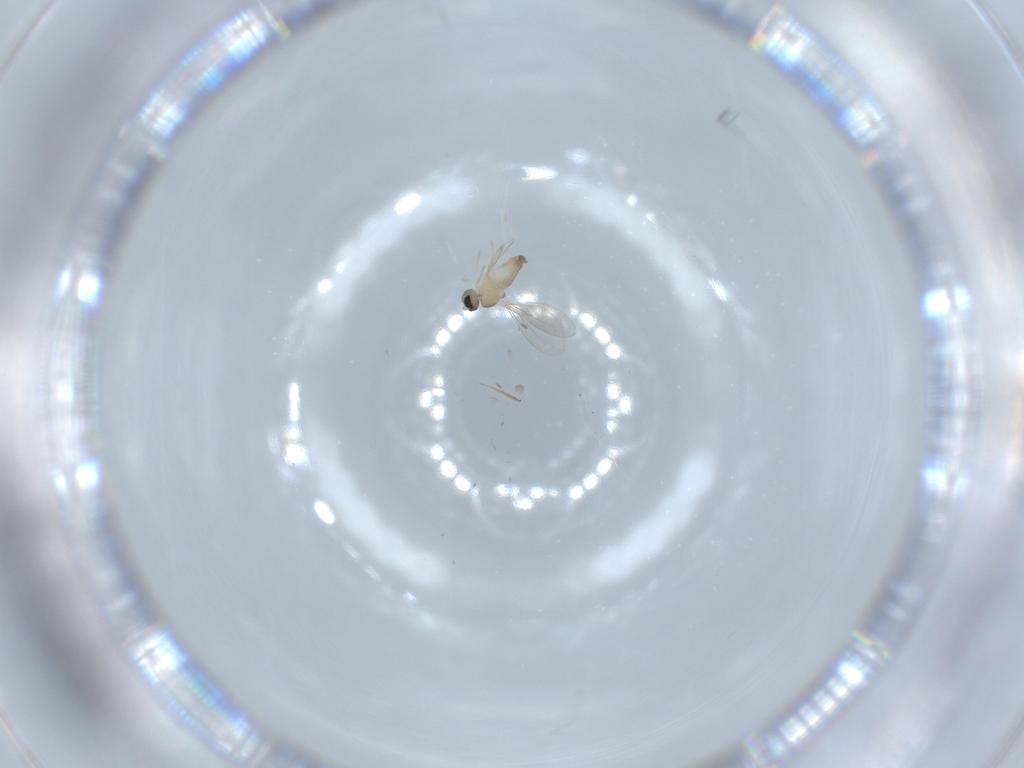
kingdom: Animalia
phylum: Arthropoda
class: Insecta
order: Diptera
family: Cecidomyiidae
